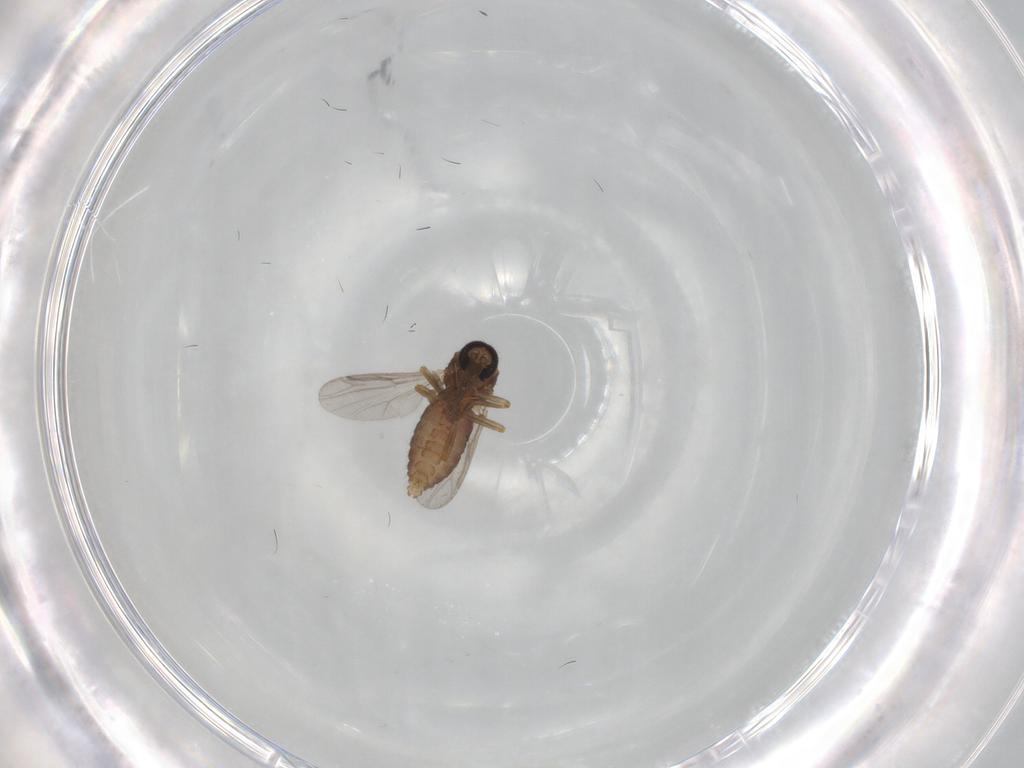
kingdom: Animalia
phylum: Arthropoda
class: Insecta
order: Diptera
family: Ceratopogonidae
